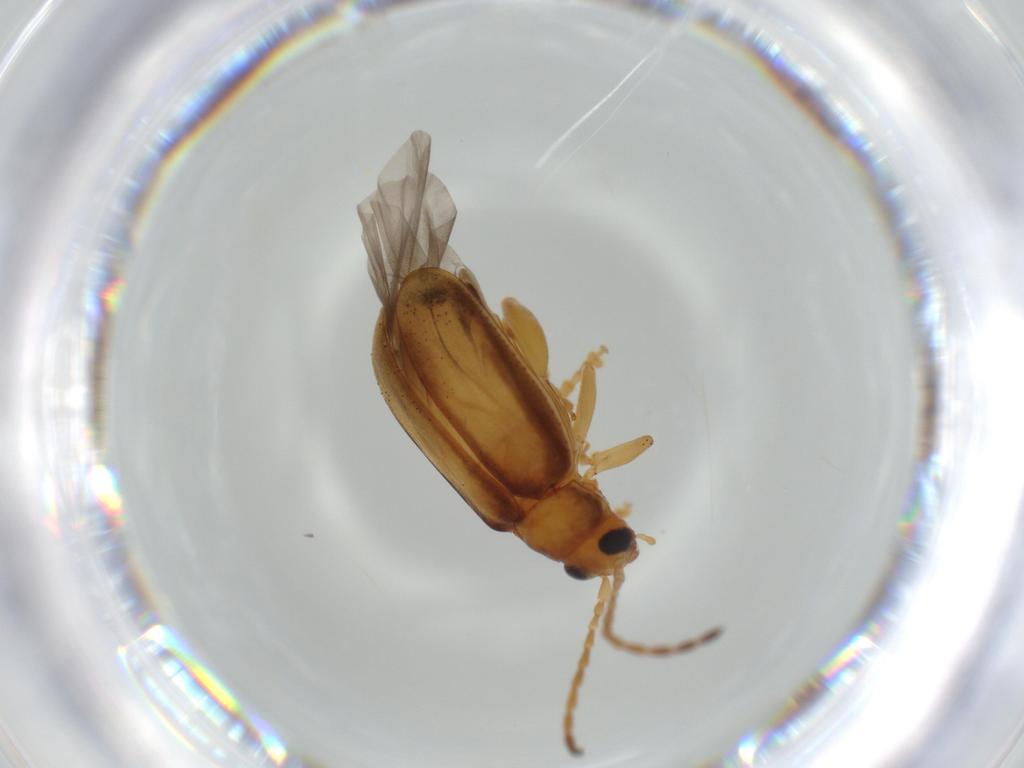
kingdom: Animalia
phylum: Arthropoda
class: Insecta
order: Coleoptera
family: Chrysomelidae
